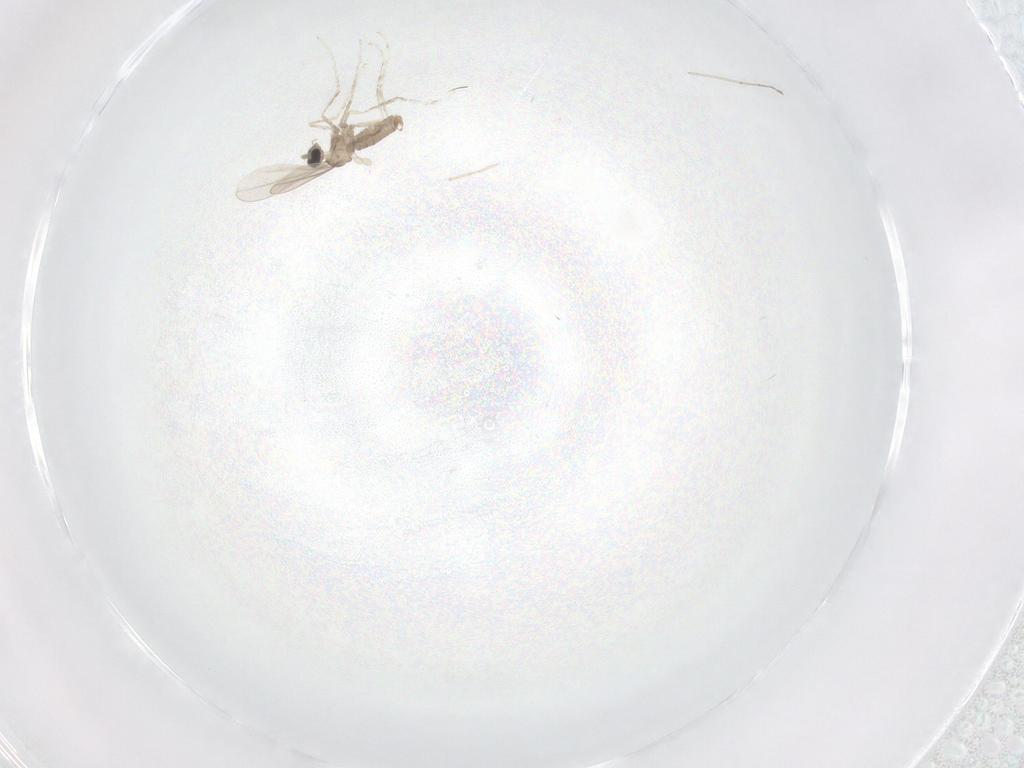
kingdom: Animalia
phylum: Arthropoda
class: Insecta
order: Diptera
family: Cecidomyiidae
